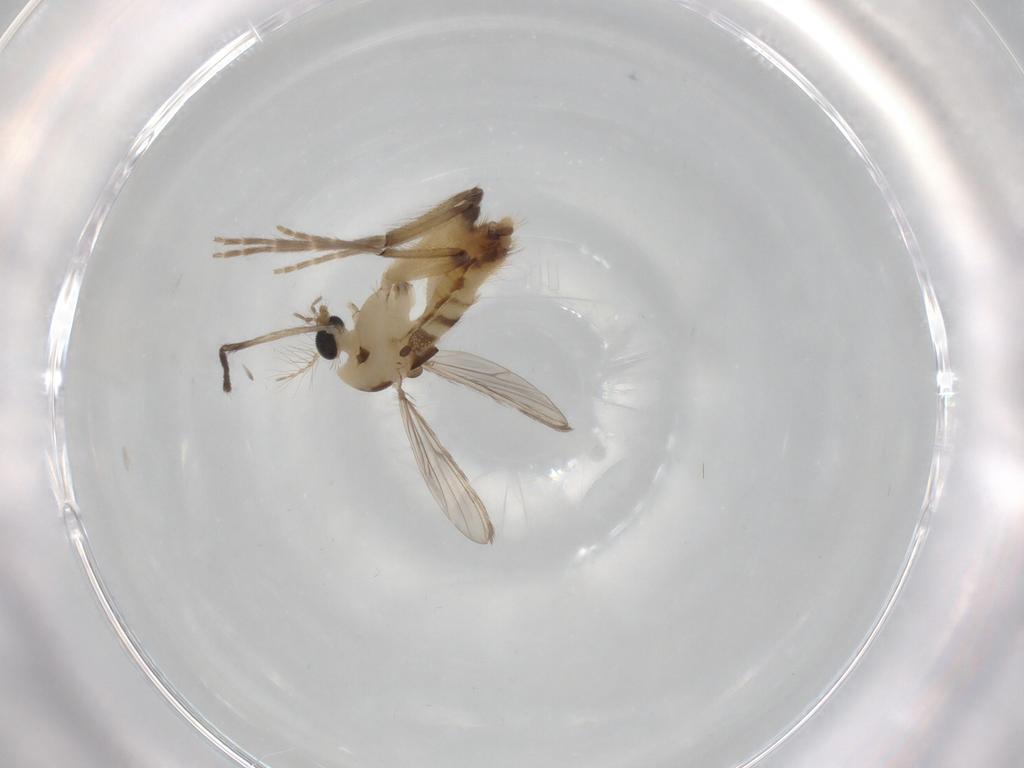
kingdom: Animalia
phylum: Arthropoda
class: Insecta
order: Diptera
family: Chironomidae
